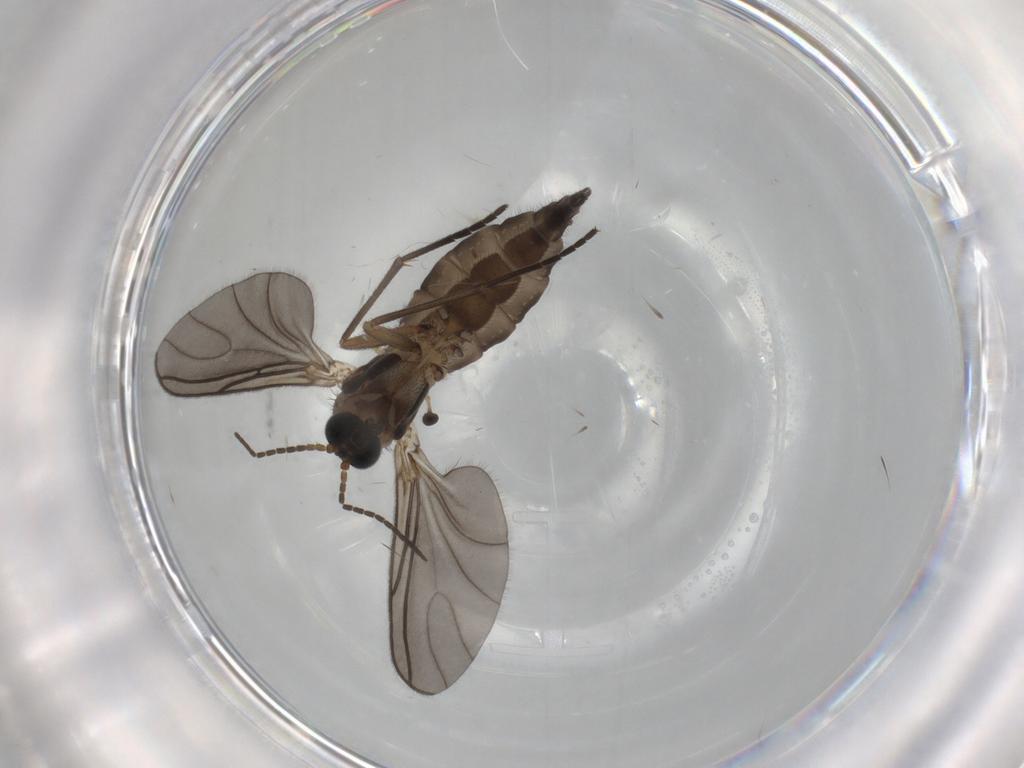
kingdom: Animalia
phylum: Arthropoda
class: Insecta
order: Diptera
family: Sciaridae
